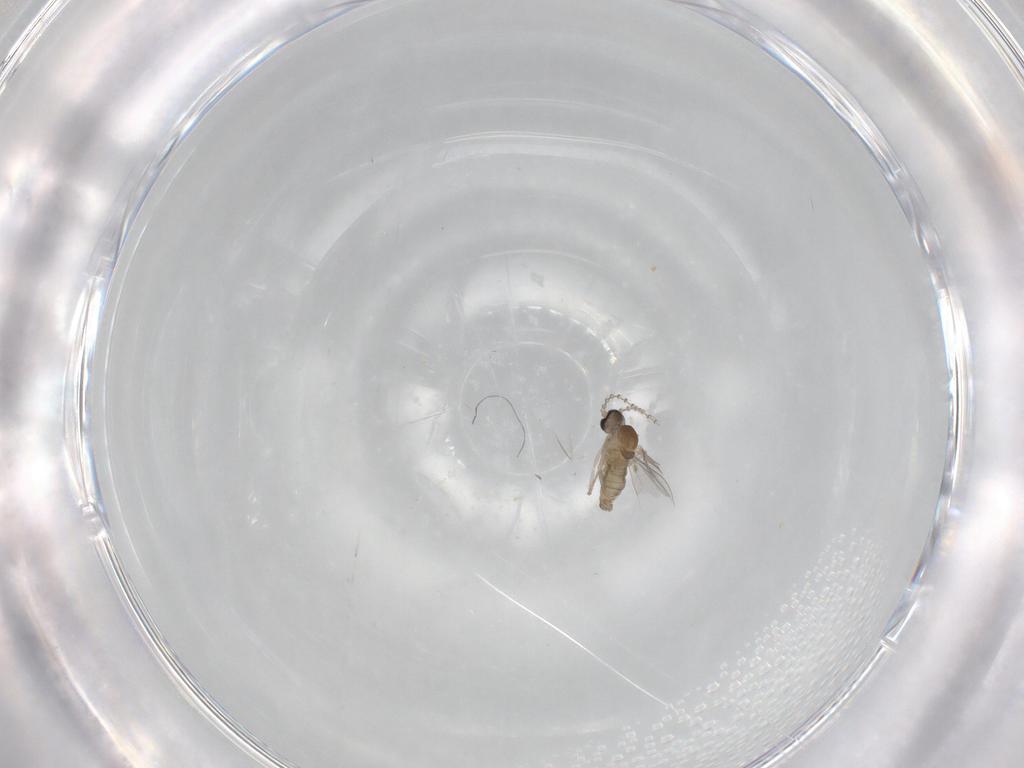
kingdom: Animalia
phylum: Arthropoda
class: Insecta
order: Diptera
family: Cecidomyiidae
